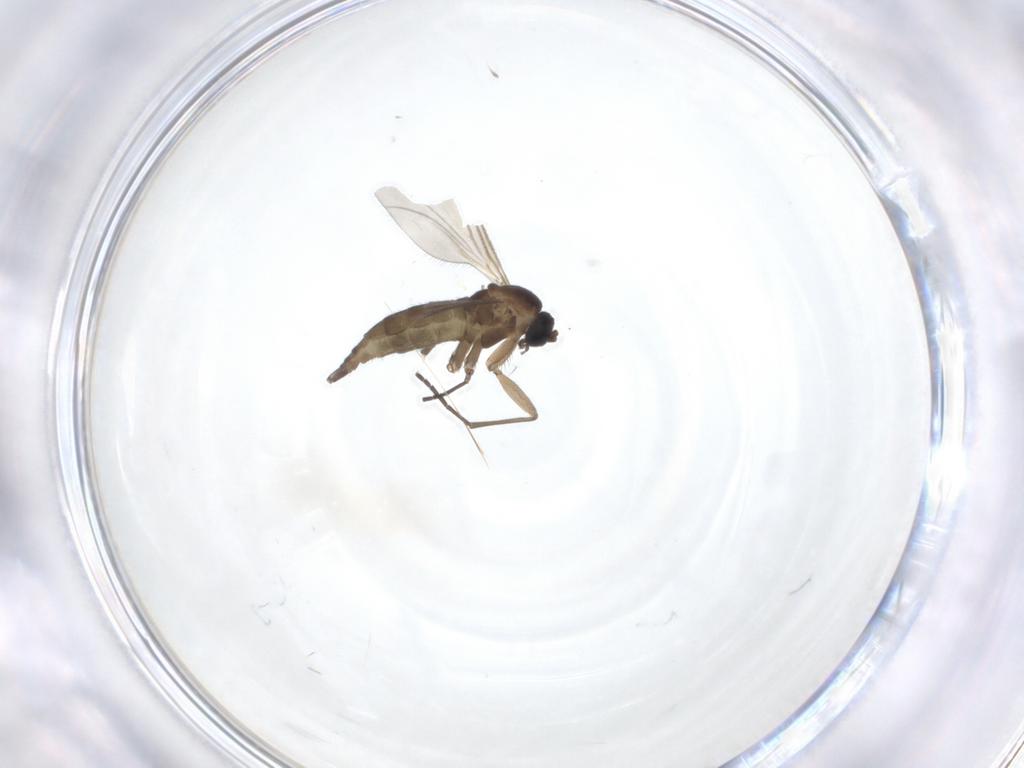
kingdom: Animalia
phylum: Arthropoda
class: Insecta
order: Diptera
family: Sciaridae
